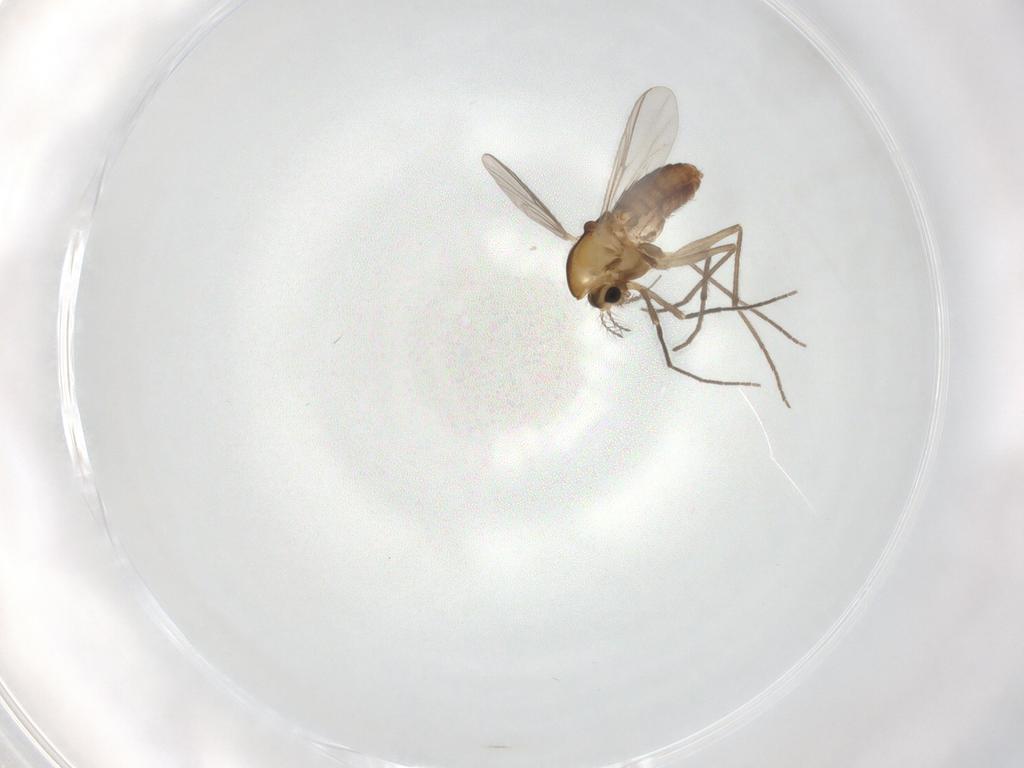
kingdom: Animalia
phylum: Arthropoda
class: Insecta
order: Diptera
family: Chironomidae
